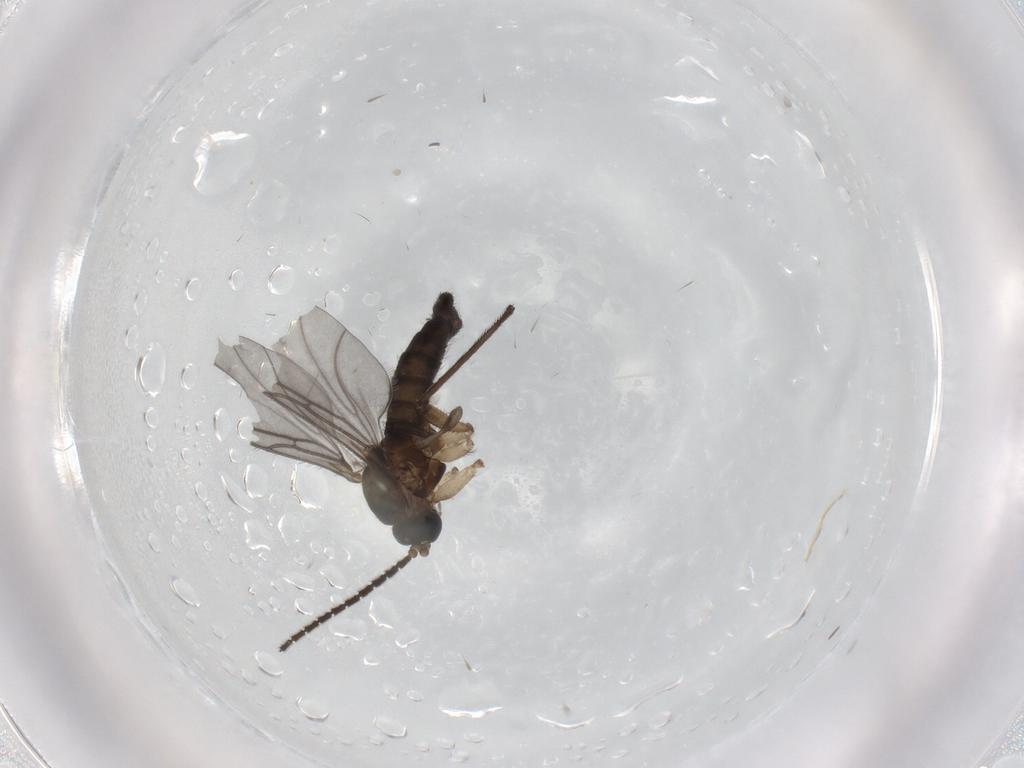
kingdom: Animalia
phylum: Arthropoda
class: Insecta
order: Diptera
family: Sciaridae
